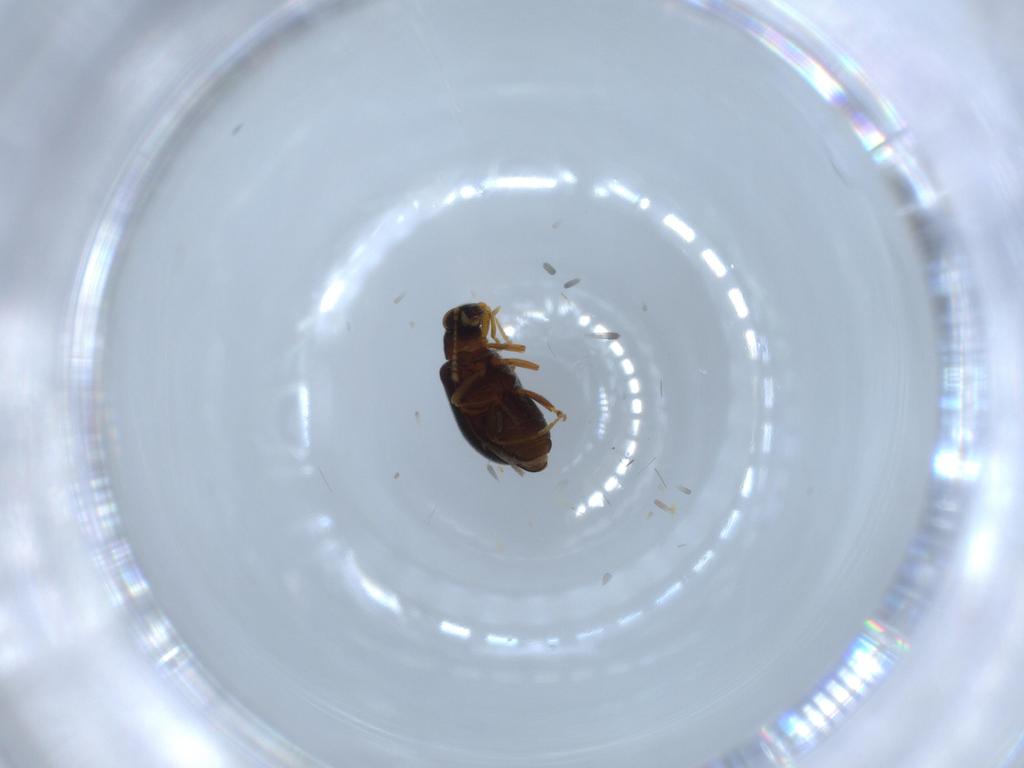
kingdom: Animalia
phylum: Arthropoda
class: Insecta
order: Coleoptera
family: Aderidae
